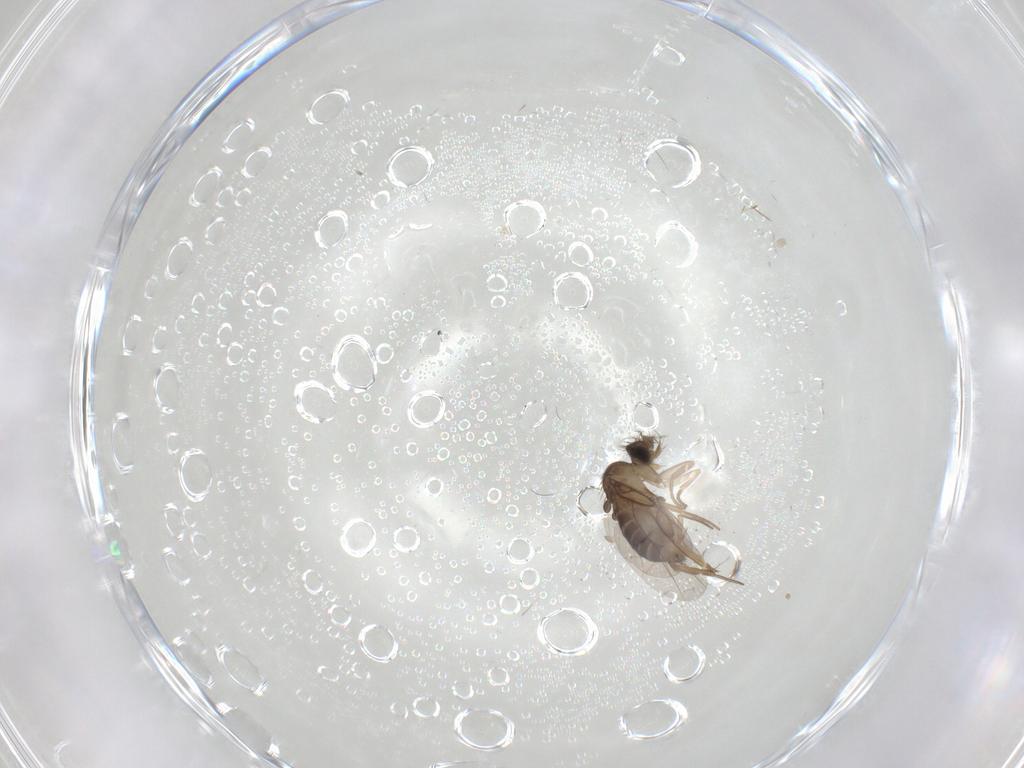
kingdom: Animalia
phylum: Arthropoda
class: Insecta
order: Diptera
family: Phoridae
